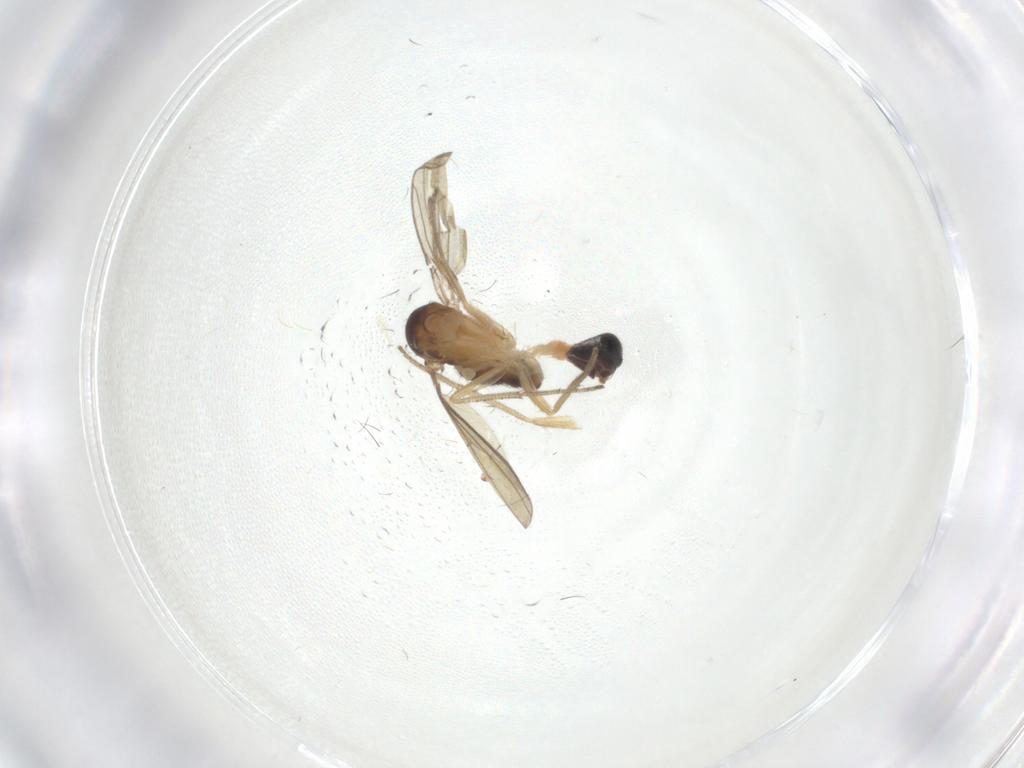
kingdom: Animalia
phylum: Arthropoda
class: Insecta
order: Diptera
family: Dolichopodidae
